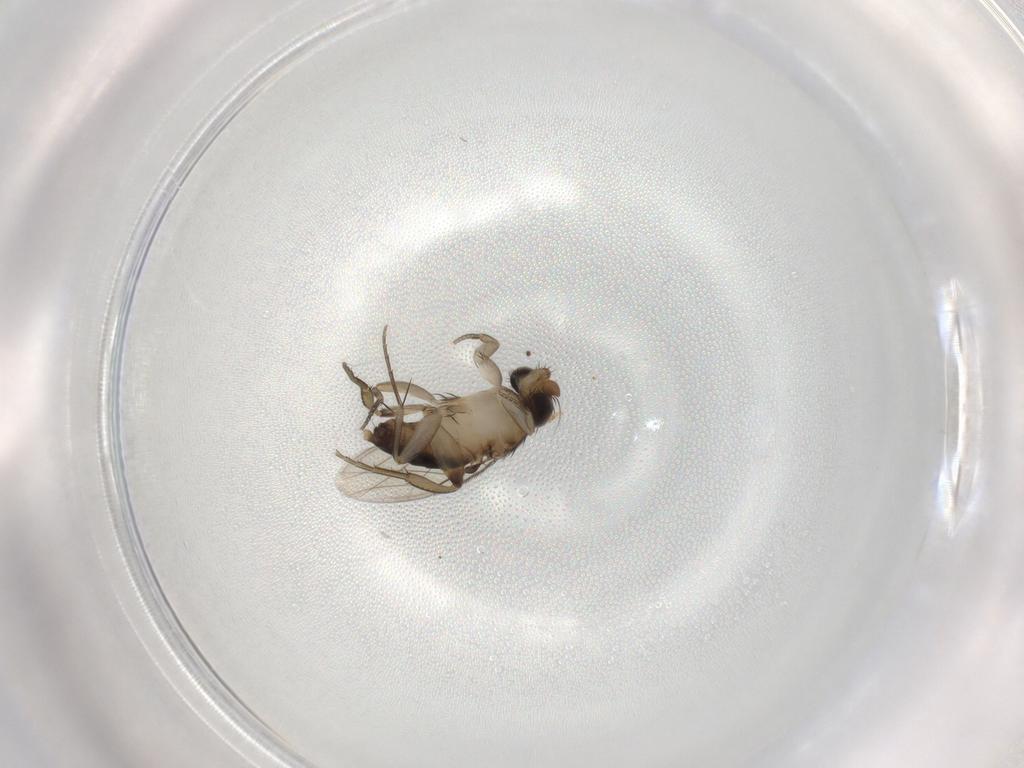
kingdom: Animalia
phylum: Arthropoda
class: Insecta
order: Diptera
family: Phoridae
